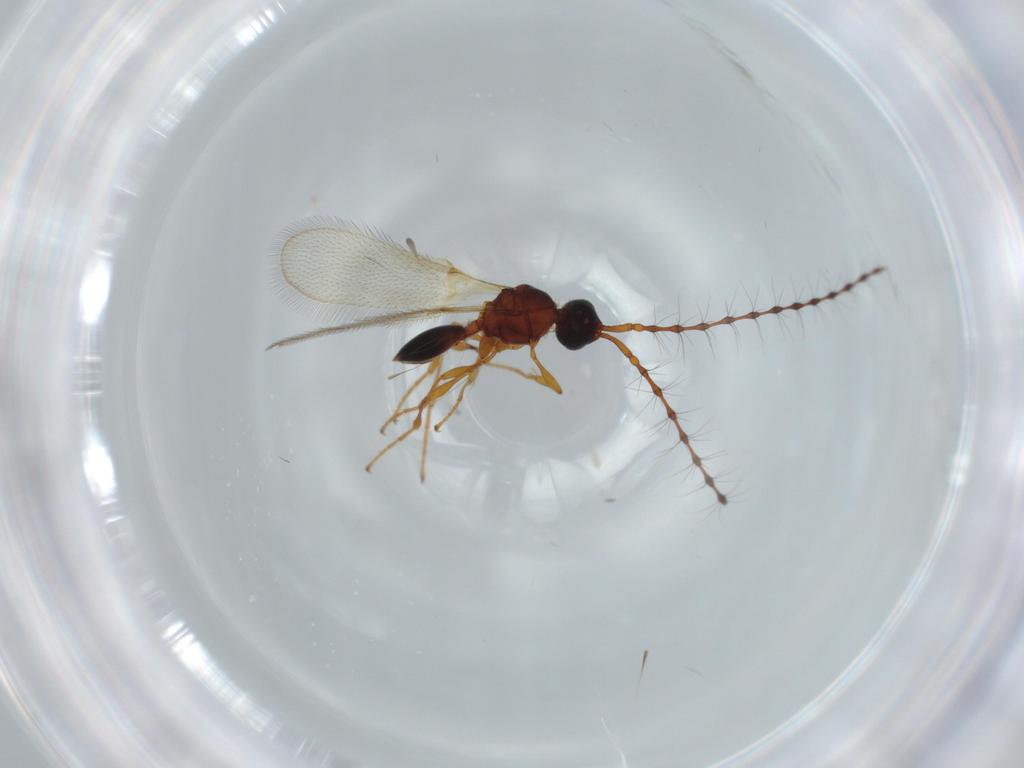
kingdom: Animalia
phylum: Arthropoda
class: Insecta
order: Hymenoptera
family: Diapriidae
